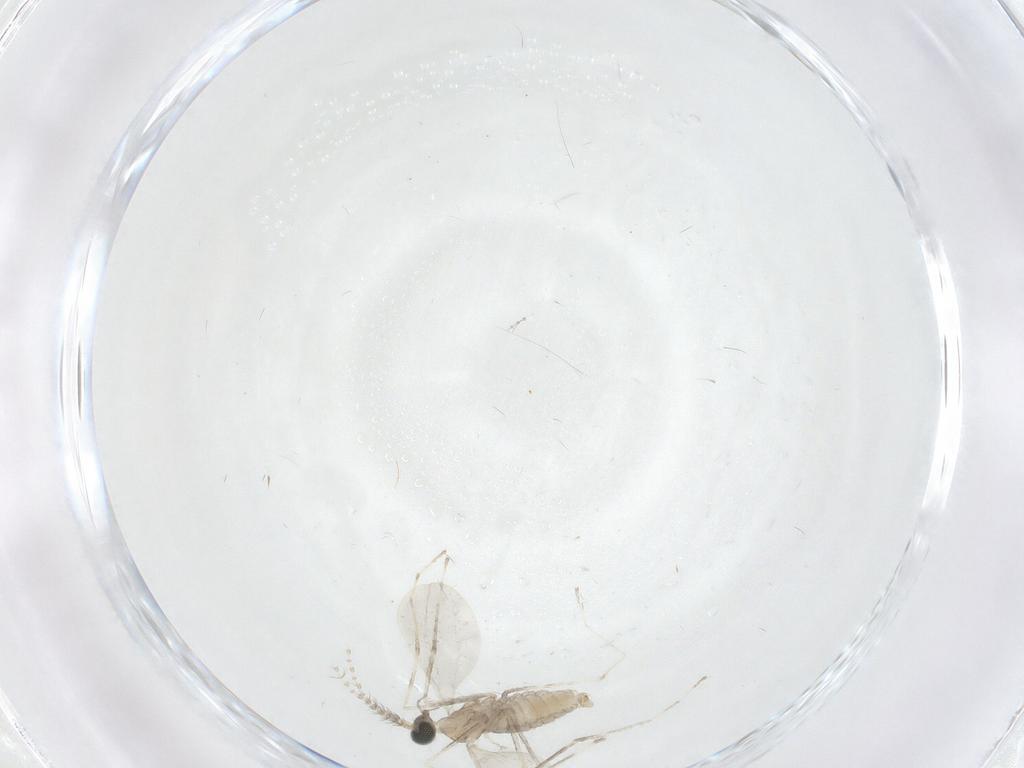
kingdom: Animalia
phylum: Arthropoda
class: Insecta
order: Diptera
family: Cecidomyiidae
